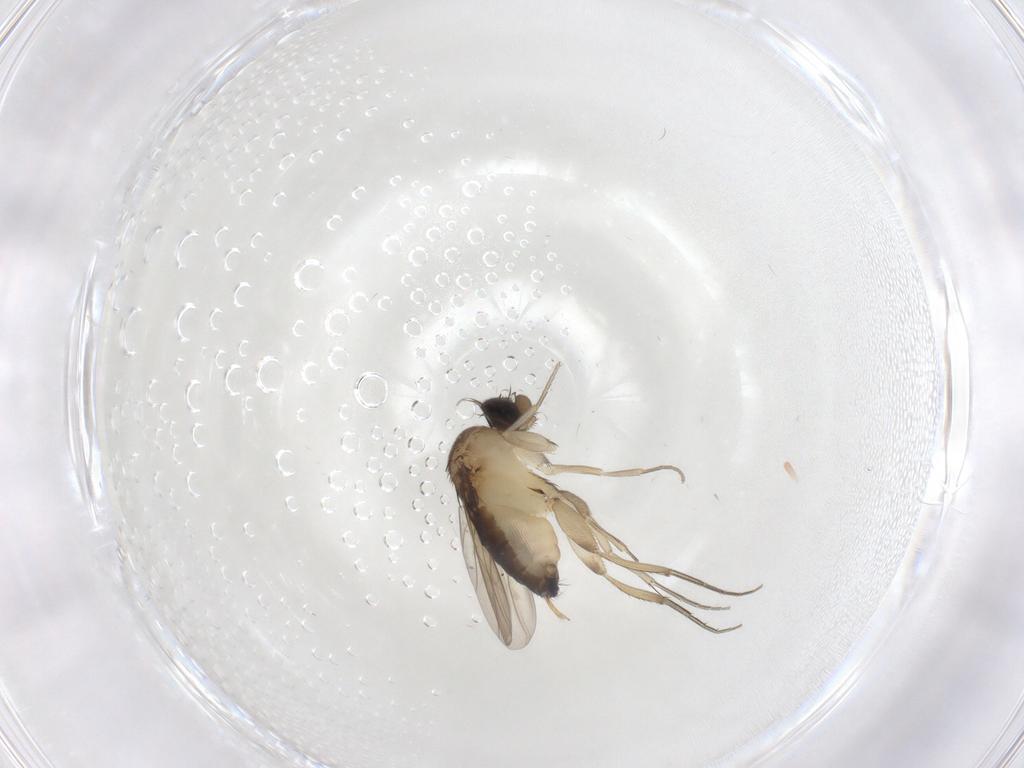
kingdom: Animalia
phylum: Arthropoda
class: Insecta
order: Diptera
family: Phoridae
